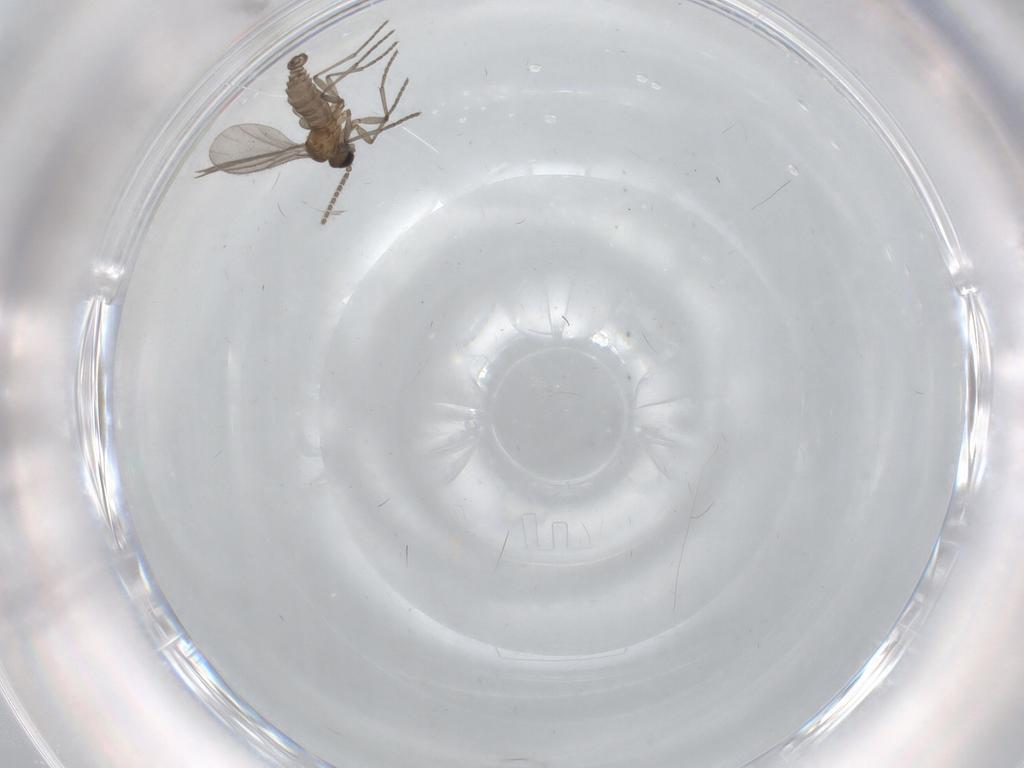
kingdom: Animalia
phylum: Arthropoda
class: Insecta
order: Diptera
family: Sciaridae
